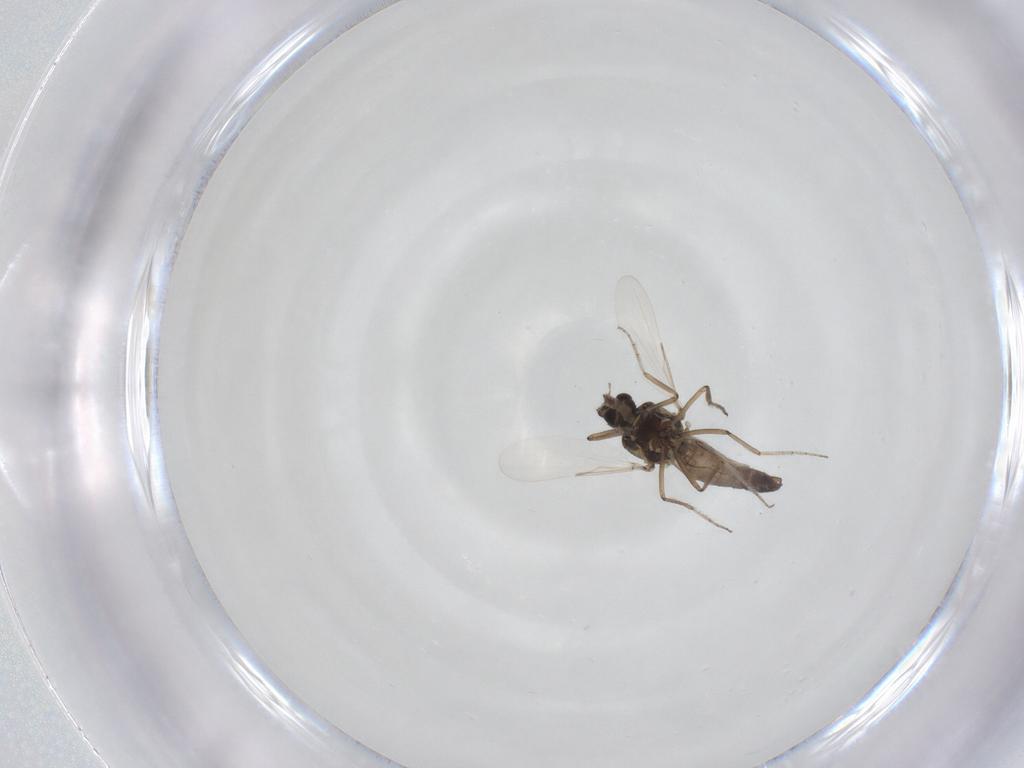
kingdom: Animalia
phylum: Arthropoda
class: Insecta
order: Diptera
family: Ceratopogonidae
